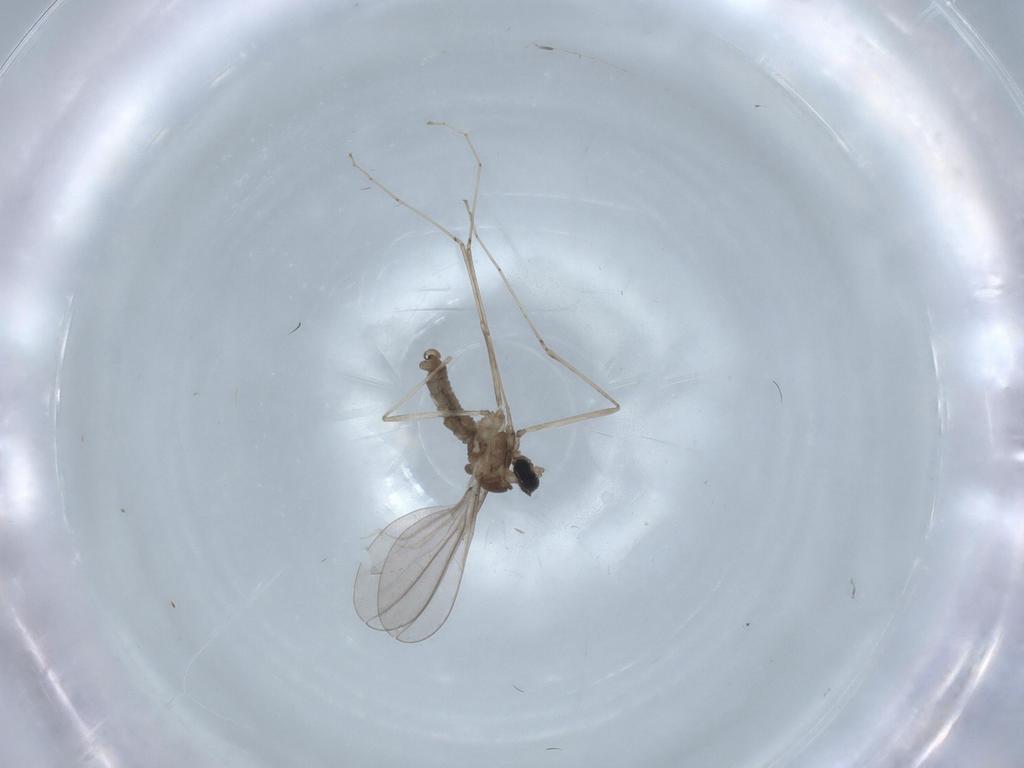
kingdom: Animalia
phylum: Arthropoda
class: Insecta
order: Diptera
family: Cecidomyiidae
